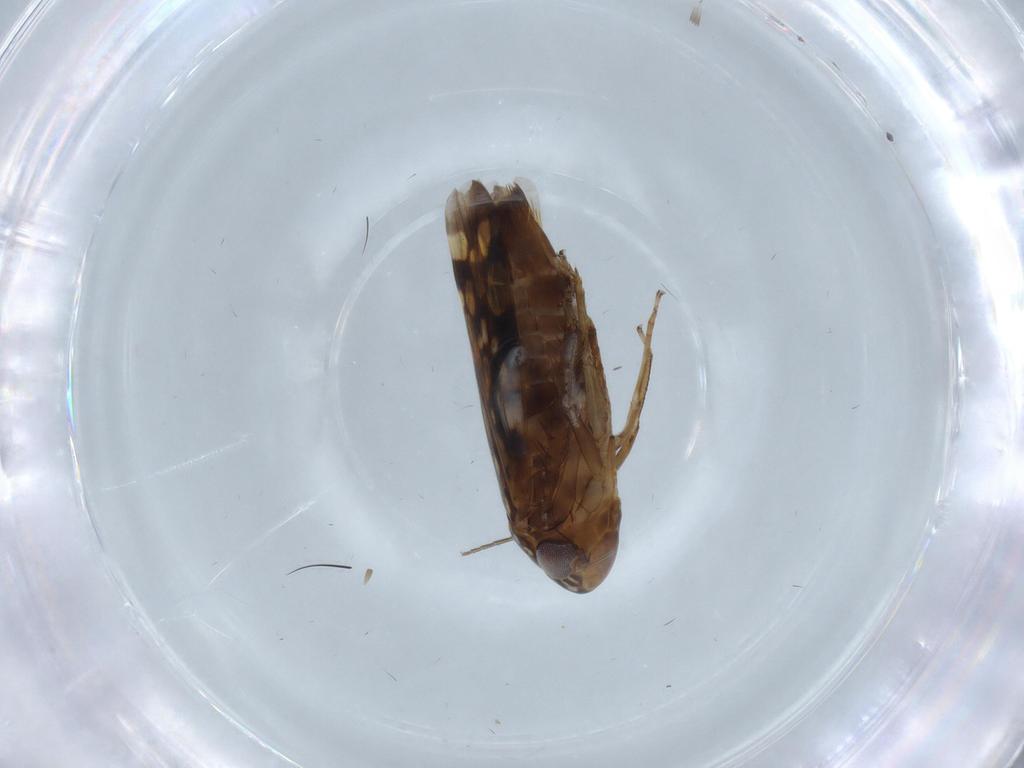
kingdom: Animalia
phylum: Arthropoda
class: Insecta
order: Hemiptera
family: Cicadellidae
